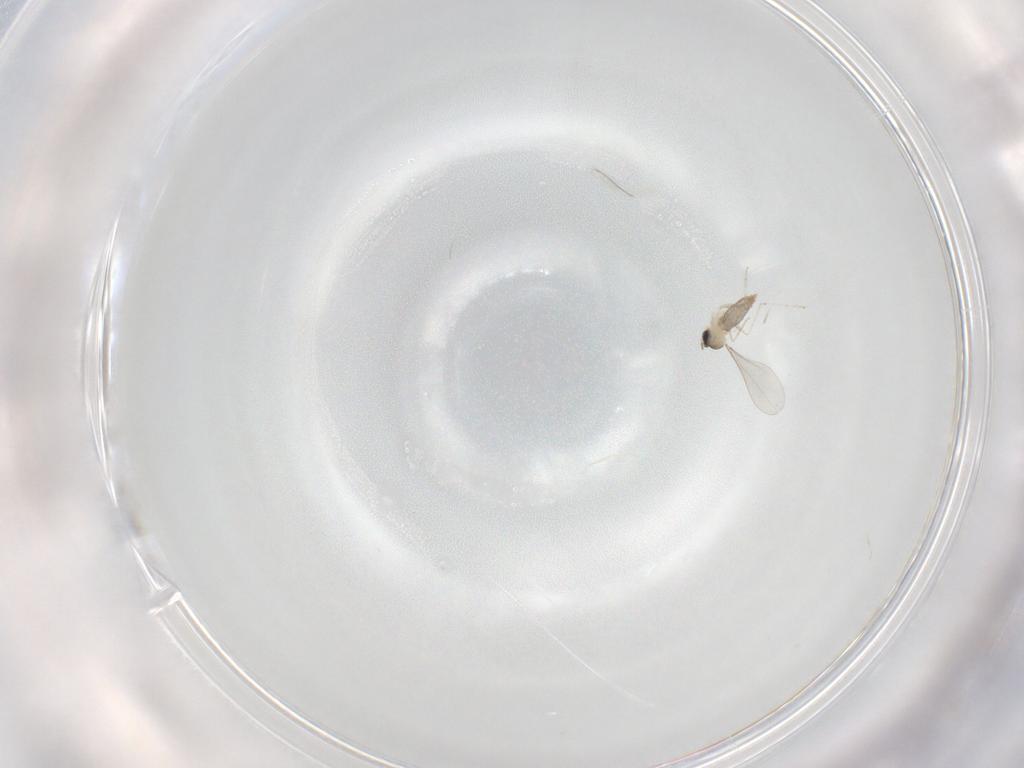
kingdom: Animalia
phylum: Arthropoda
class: Insecta
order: Diptera
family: Cecidomyiidae
